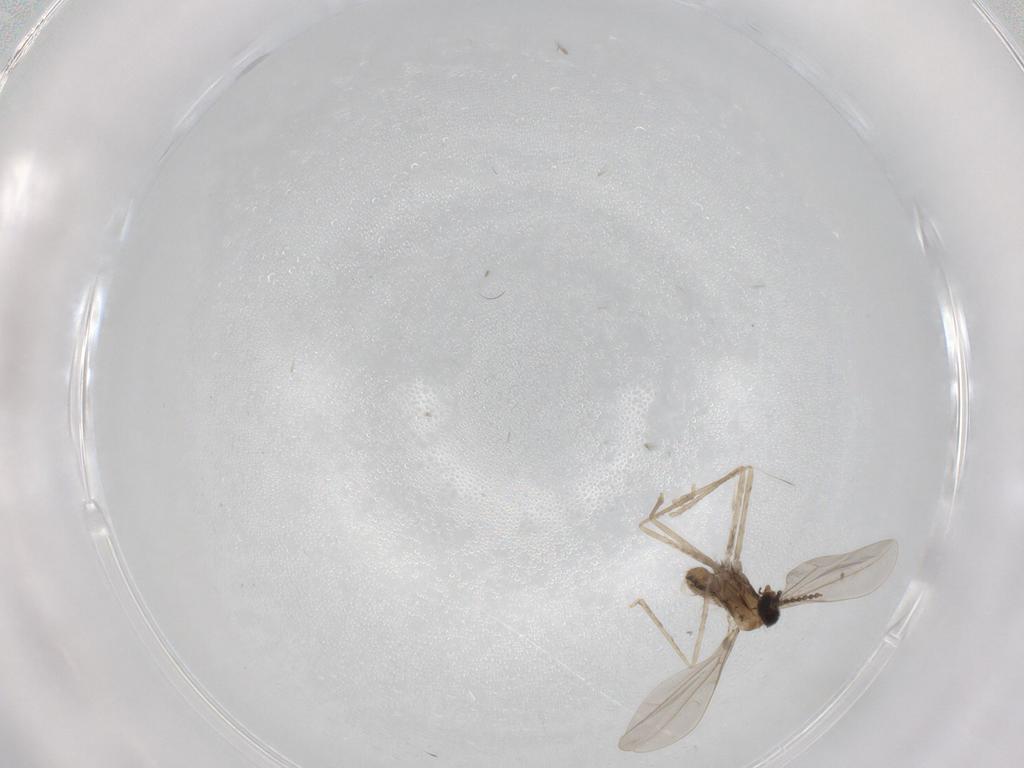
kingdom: Animalia
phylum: Arthropoda
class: Insecta
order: Diptera
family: Cecidomyiidae
